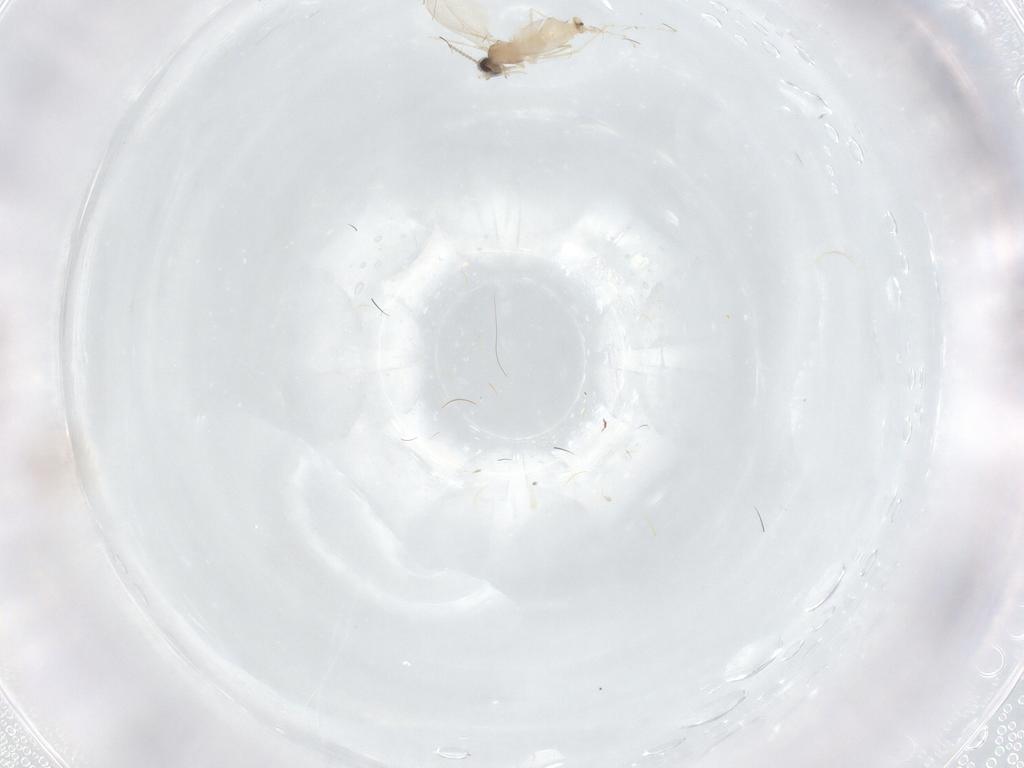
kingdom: Animalia
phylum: Arthropoda
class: Insecta
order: Diptera
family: Cecidomyiidae
